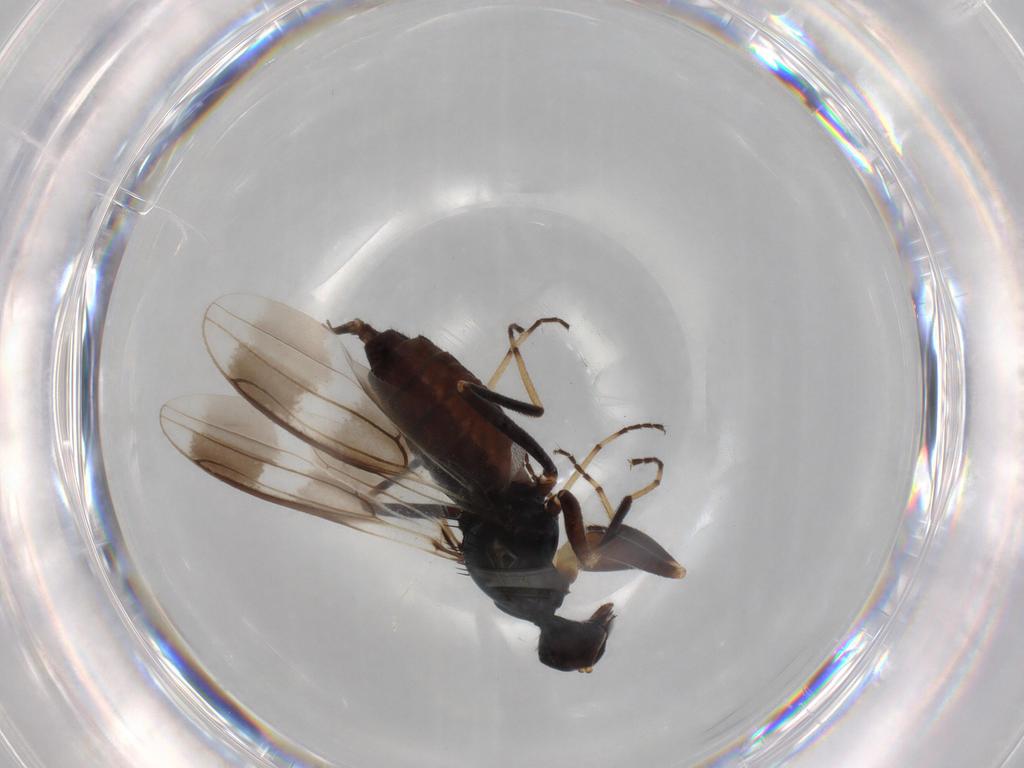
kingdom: Animalia
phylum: Arthropoda
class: Insecta
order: Diptera
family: Hybotidae
